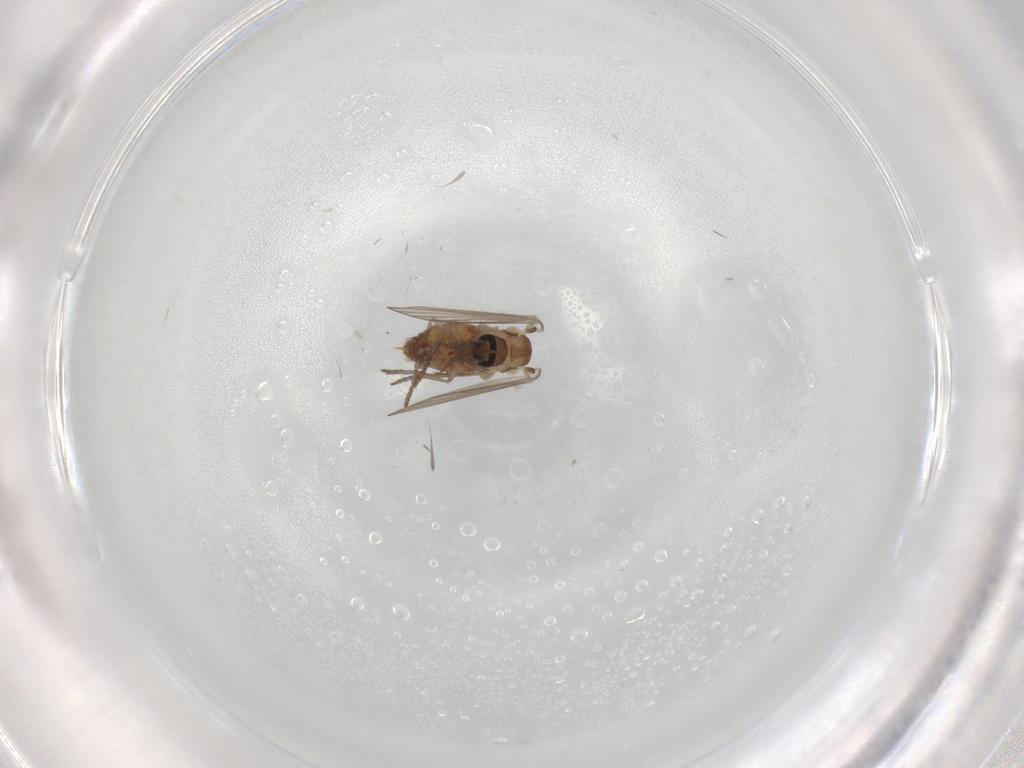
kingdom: Animalia
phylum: Arthropoda
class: Insecta
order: Diptera
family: Psychodidae
